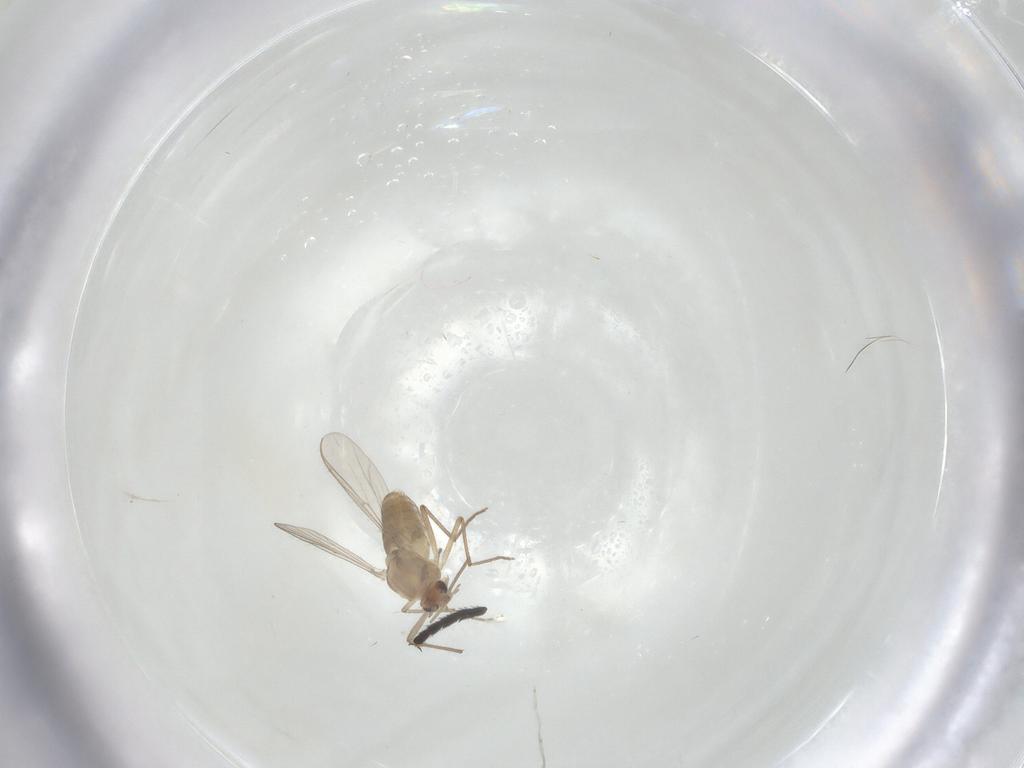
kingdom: Animalia
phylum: Arthropoda
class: Insecta
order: Diptera
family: Chironomidae
